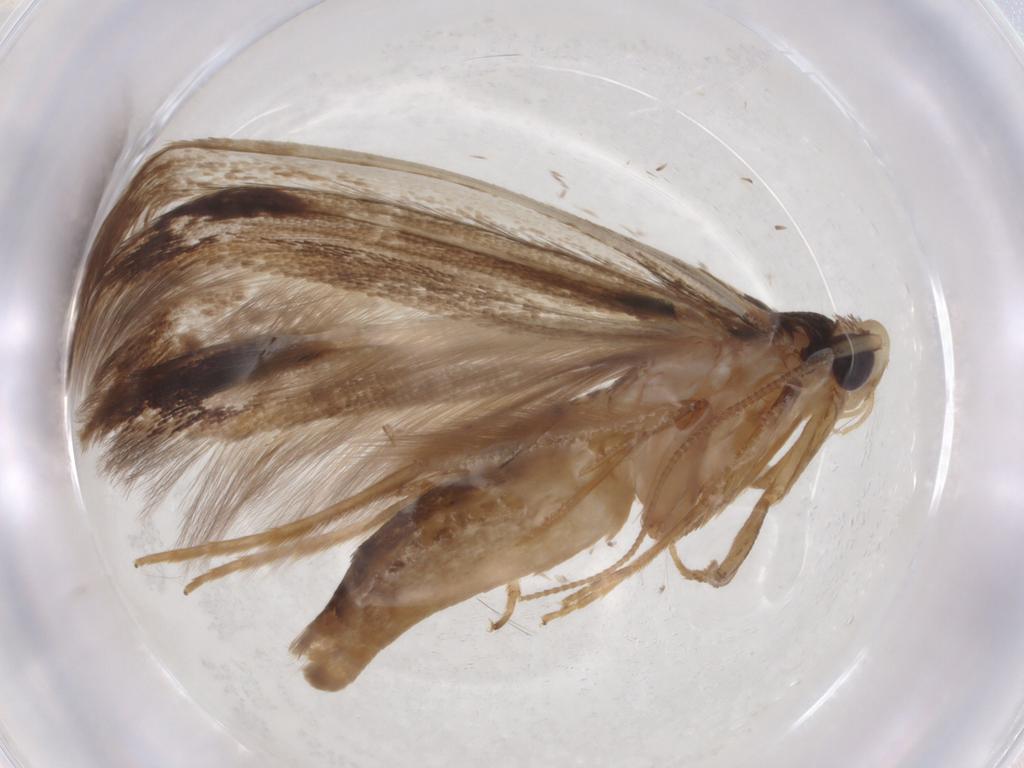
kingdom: Animalia
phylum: Arthropoda
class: Insecta
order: Lepidoptera
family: Tineidae
